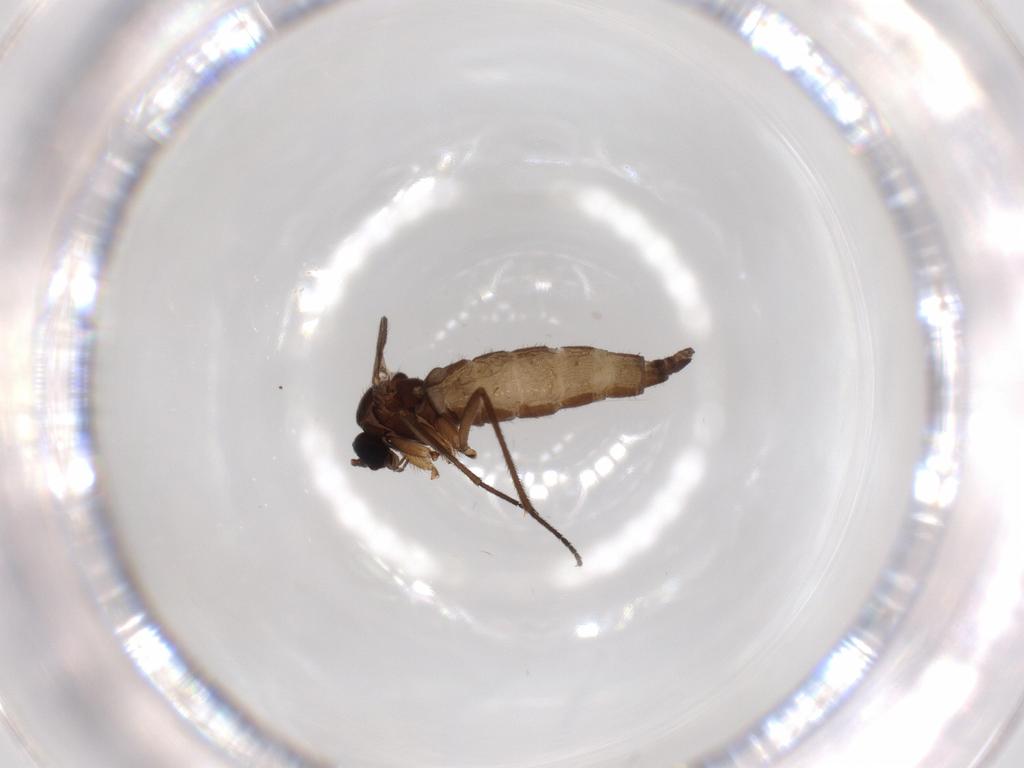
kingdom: Animalia
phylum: Arthropoda
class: Insecta
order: Diptera
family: Sciaridae
